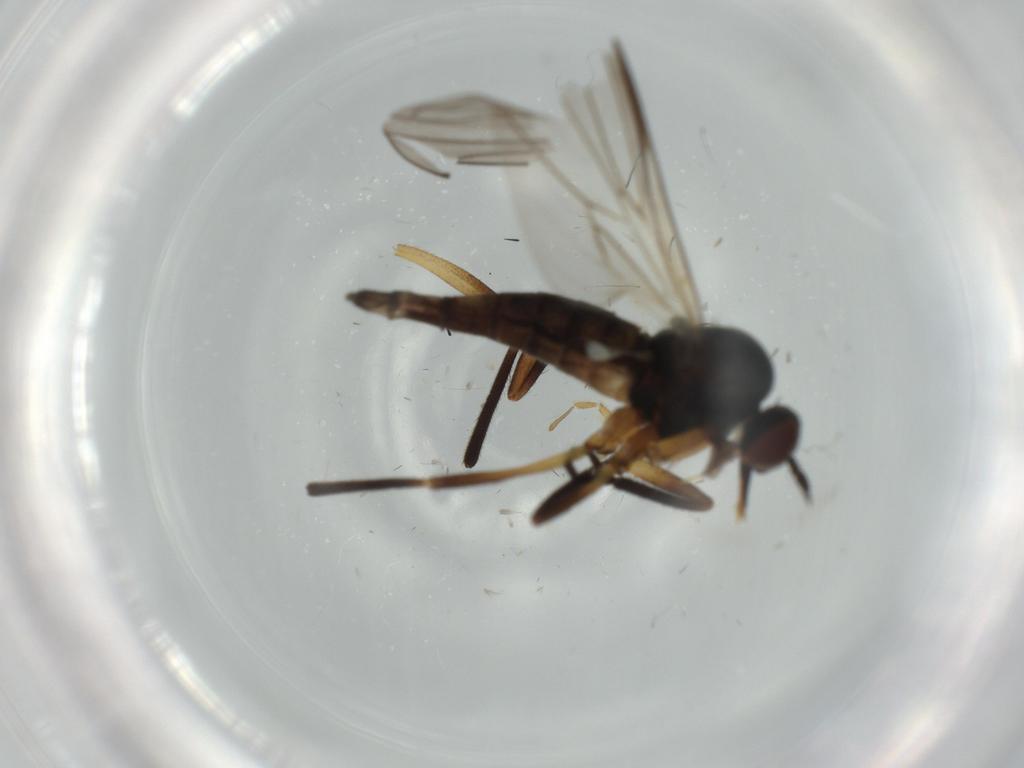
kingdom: Animalia
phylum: Arthropoda
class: Insecta
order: Diptera
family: Empididae
